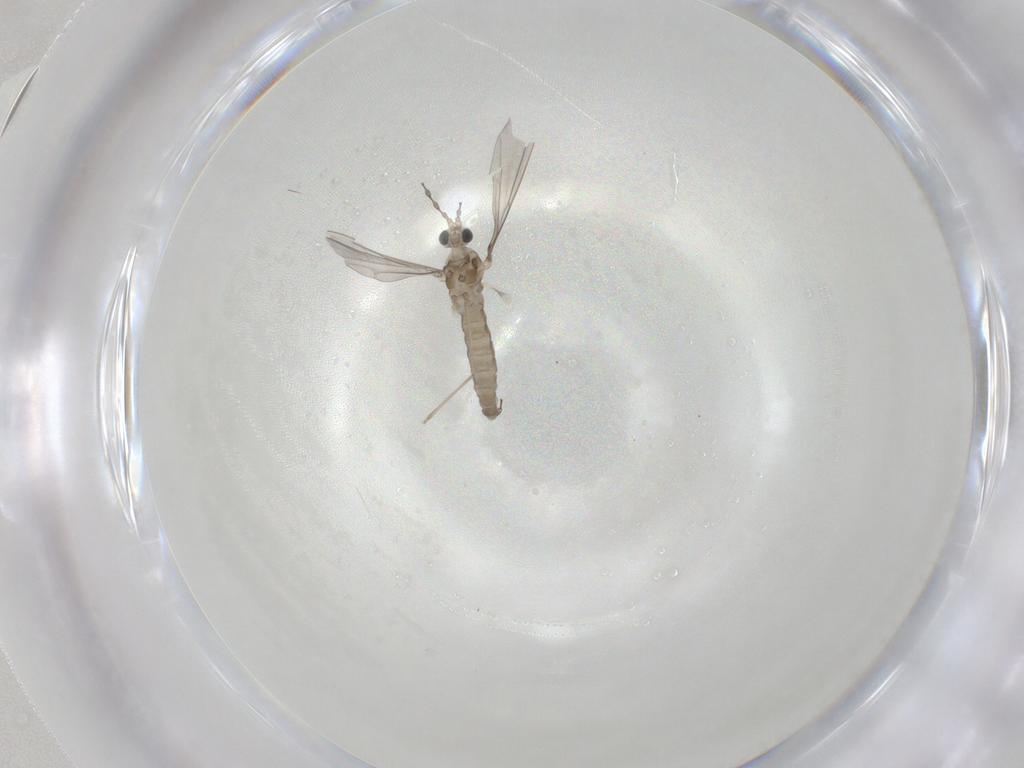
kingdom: Animalia
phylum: Arthropoda
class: Insecta
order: Diptera
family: Cecidomyiidae
